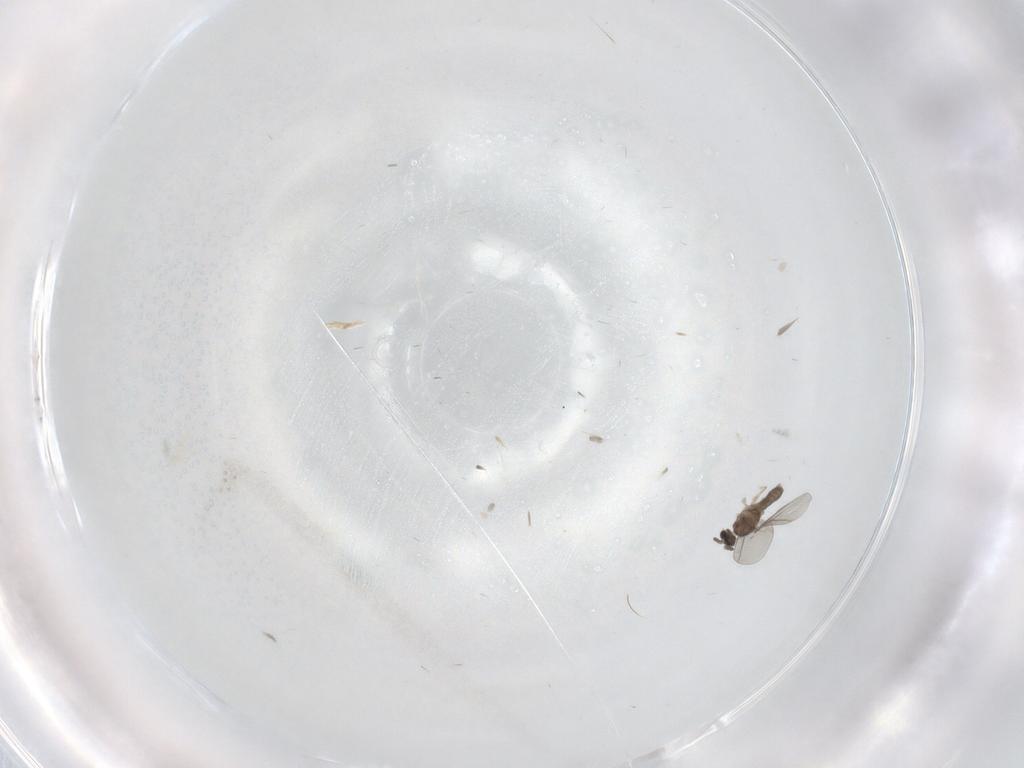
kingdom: Animalia
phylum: Arthropoda
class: Insecta
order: Diptera
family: Cecidomyiidae
